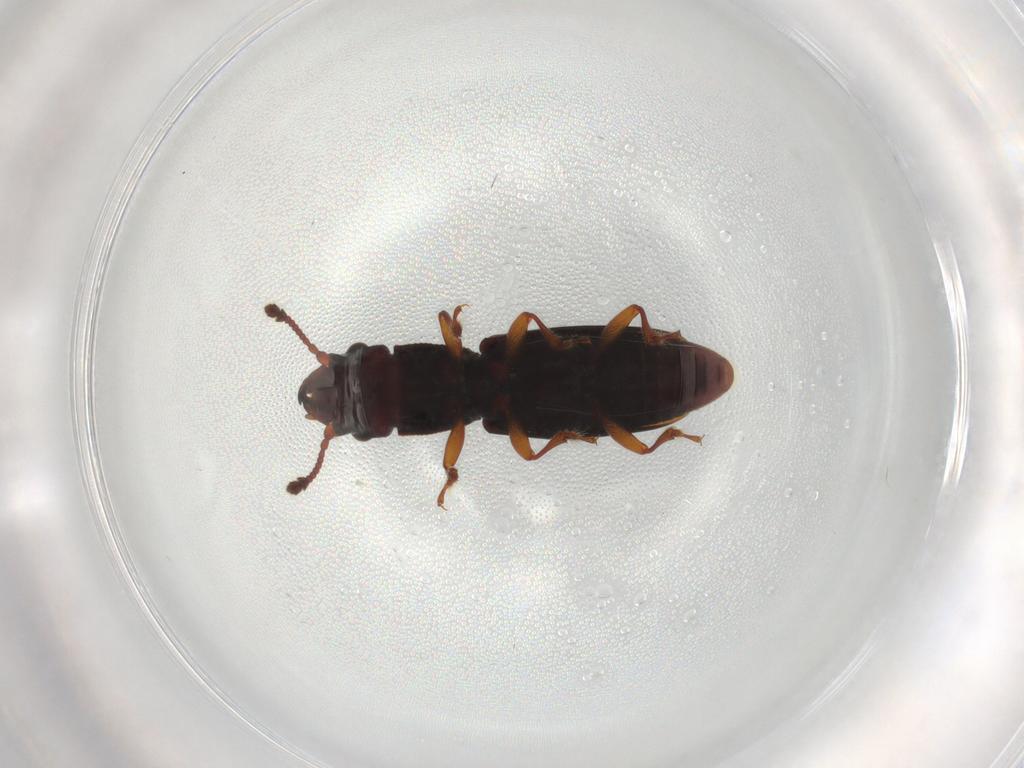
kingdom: Animalia
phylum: Arthropoda
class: Insecta
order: Coleoptera
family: Monotomidae
